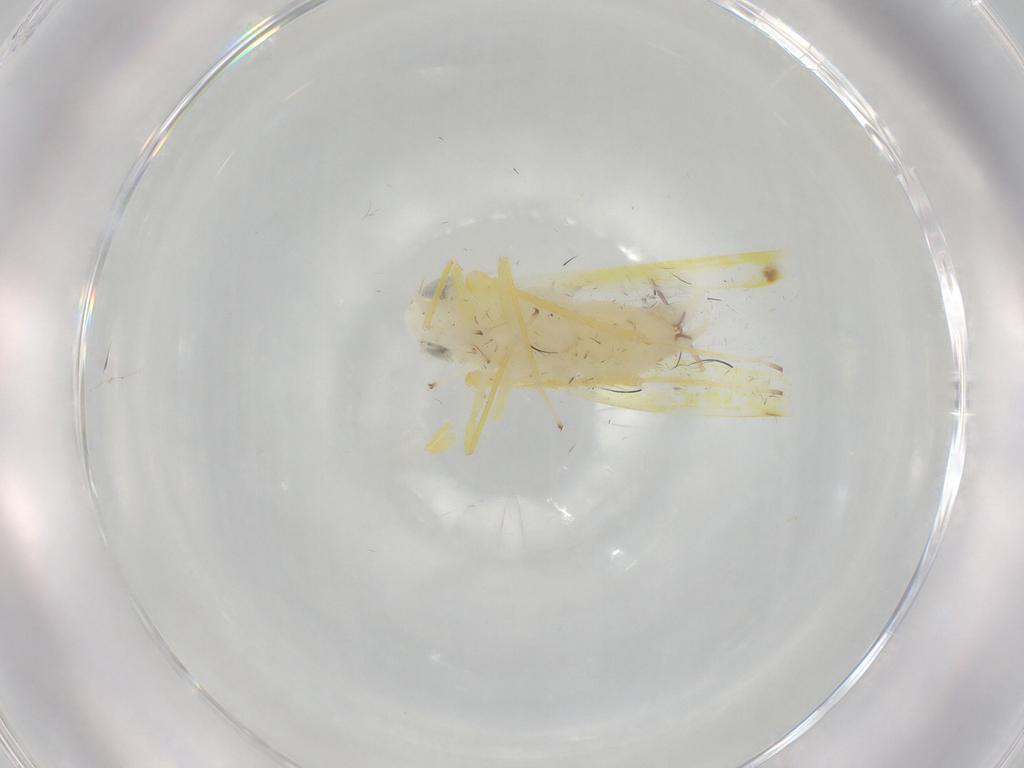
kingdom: Animalia
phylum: Arthropoda
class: Insecta
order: Hemiptera
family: Cicadellidae
